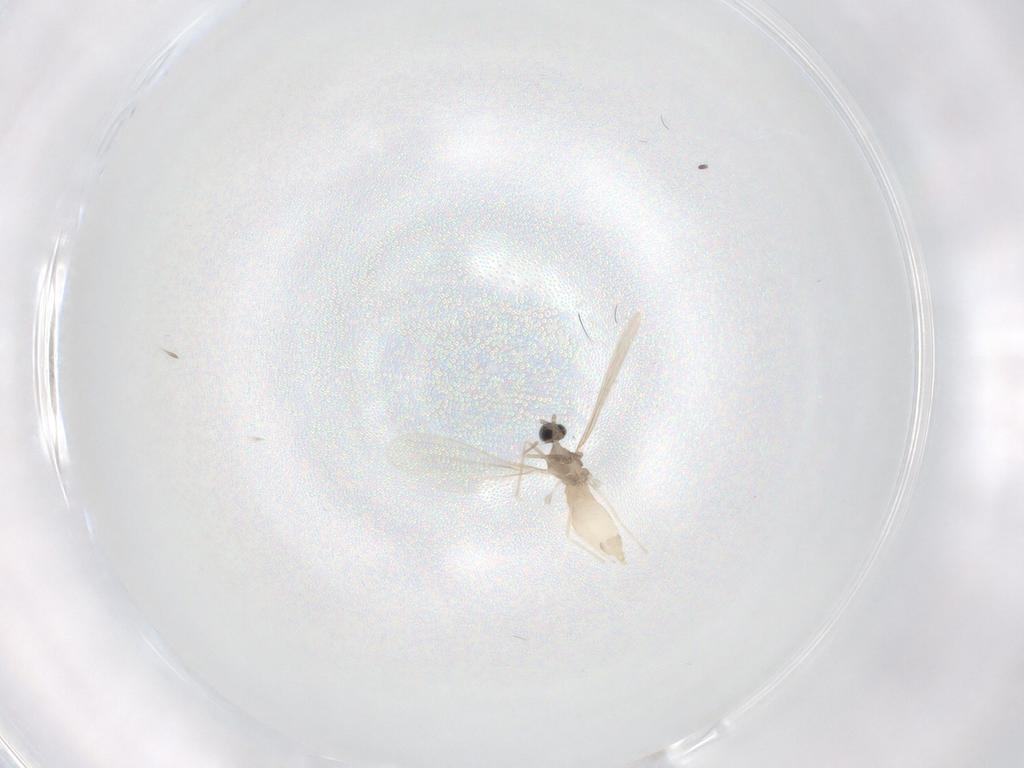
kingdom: Animalia
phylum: Arthropoda
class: Insecta
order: Diptera
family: Cecidomyiidae
